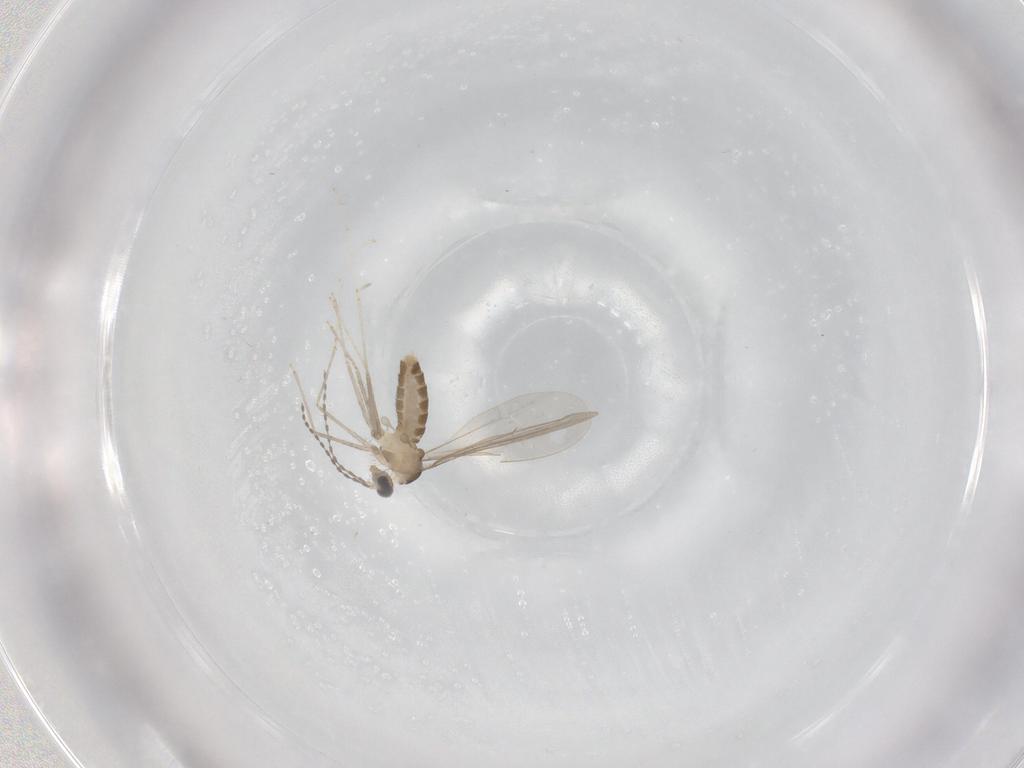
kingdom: Animalia
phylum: Arthropoda
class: Insecta
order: Diptera
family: Cecidomyiidae
